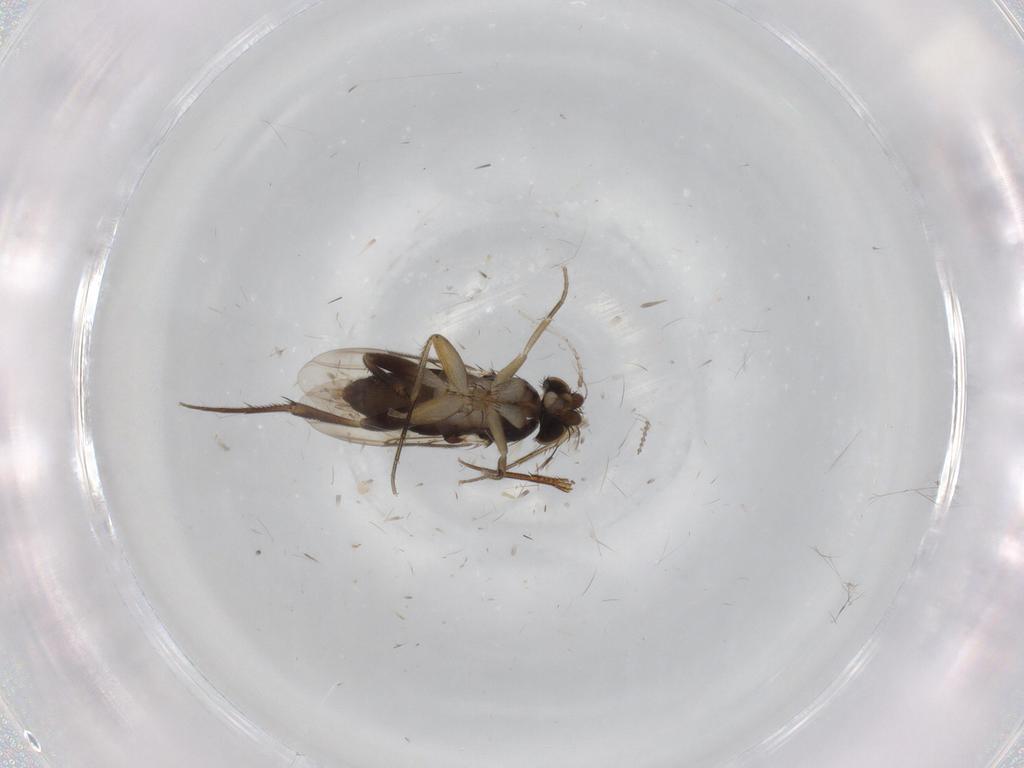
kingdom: Animalia
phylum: Arthropoda
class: Insecta
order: Diptera
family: Phoridae
